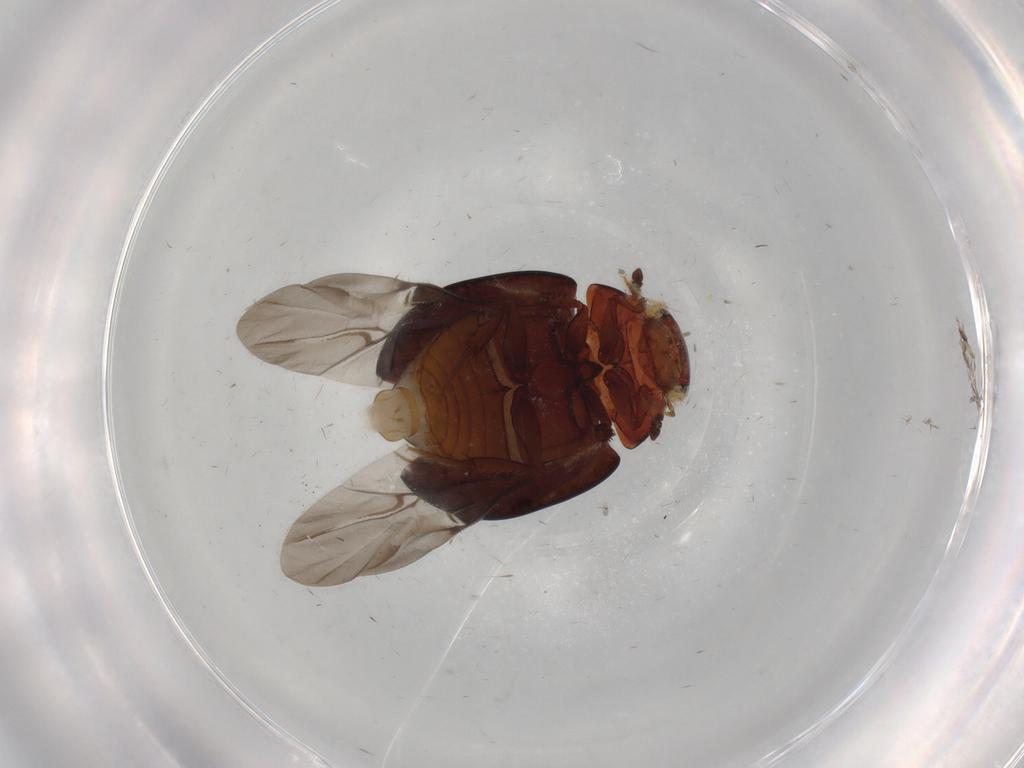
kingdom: Animalia
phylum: Arthropoda
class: Insecta
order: Coleoptera
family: Hydrophilidae
